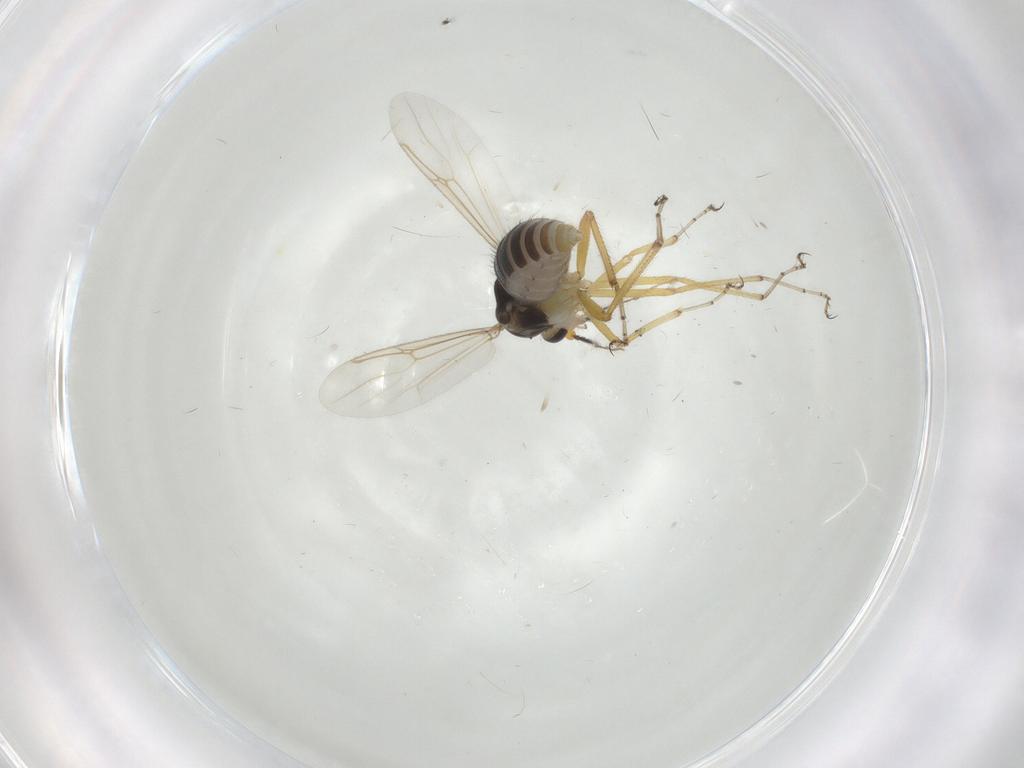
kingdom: Animalia
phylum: Arthropoda
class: Insecta
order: Diptera
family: Ceratopogonidae
